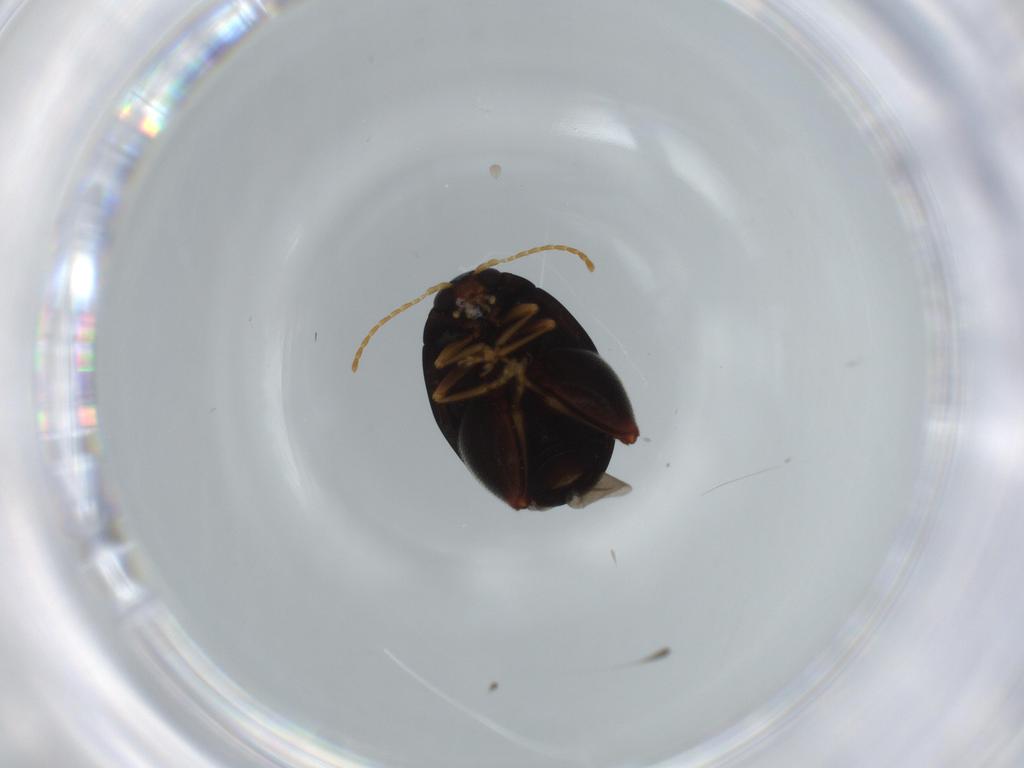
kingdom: Animalia
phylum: Arthropoda
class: Insecta
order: Coleoptera
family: Chrysomelidae
